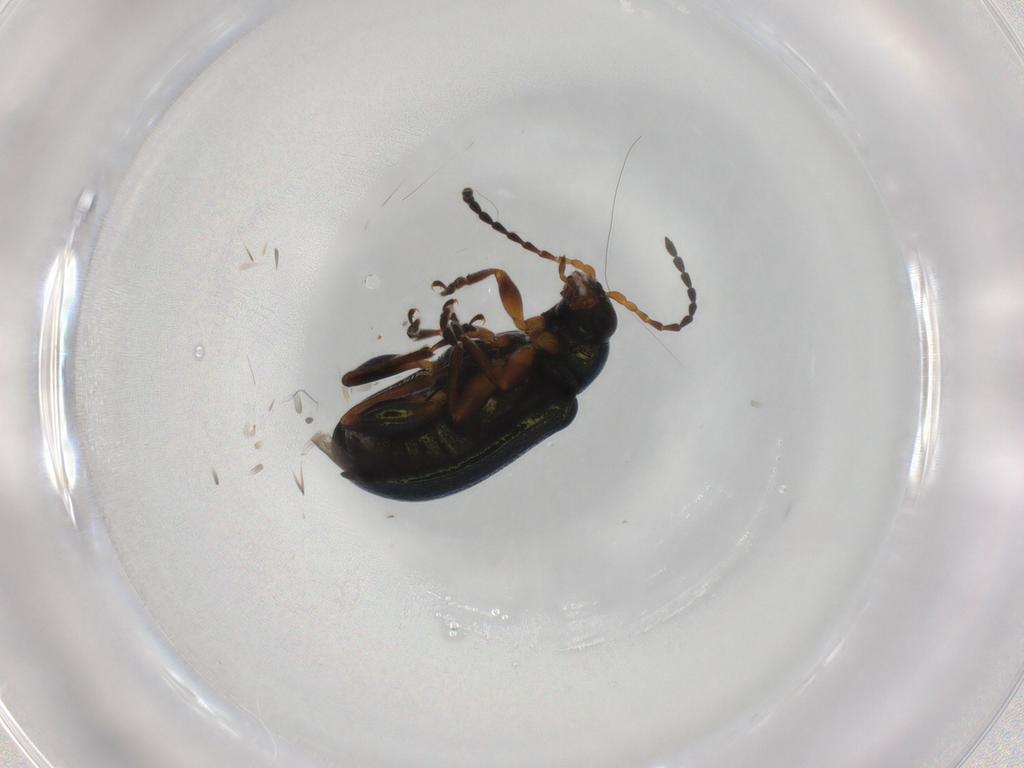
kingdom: Animalia
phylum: Arthropoda
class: Insecta
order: Coleoptera
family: Chrysomelidae
